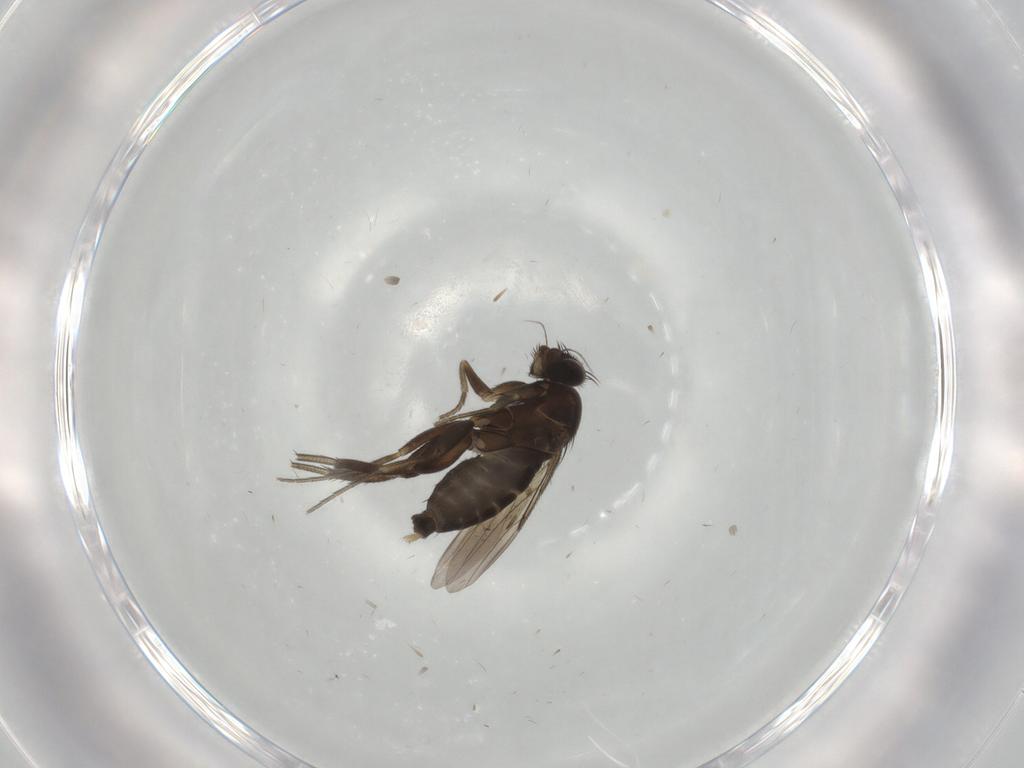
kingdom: Animalia
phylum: Arthropoda
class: Insecta
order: Diptera
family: Phoridae
